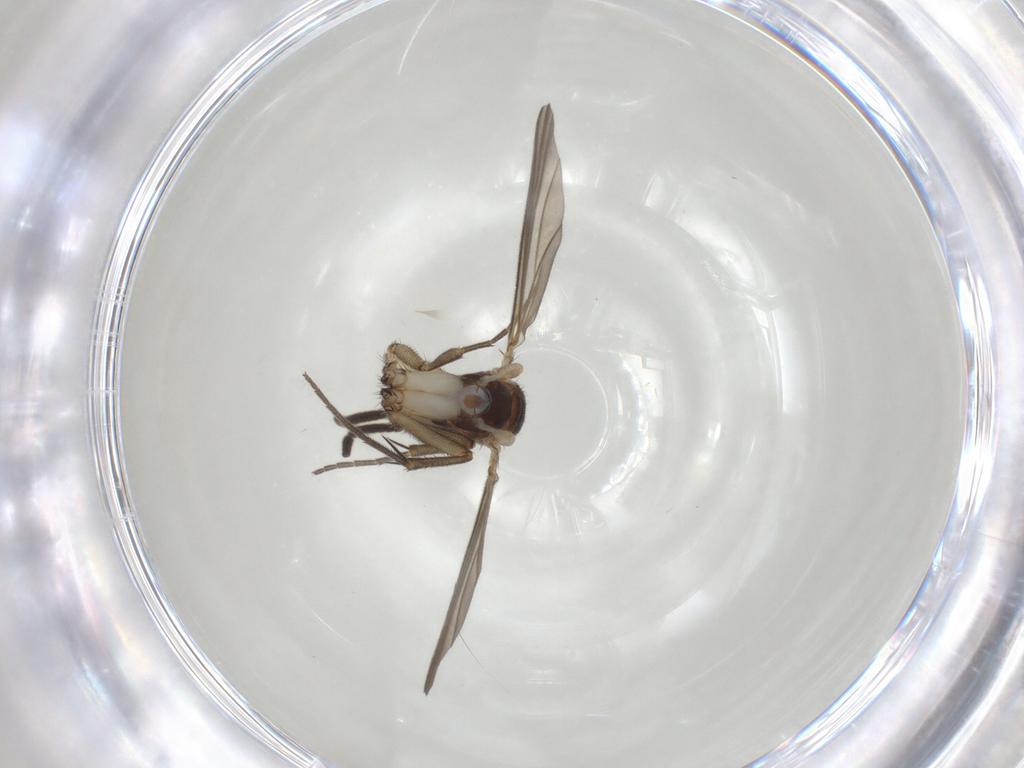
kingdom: Animalia
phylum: Arthropoda
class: Insecta
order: Diptera
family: Mycetophilidae
